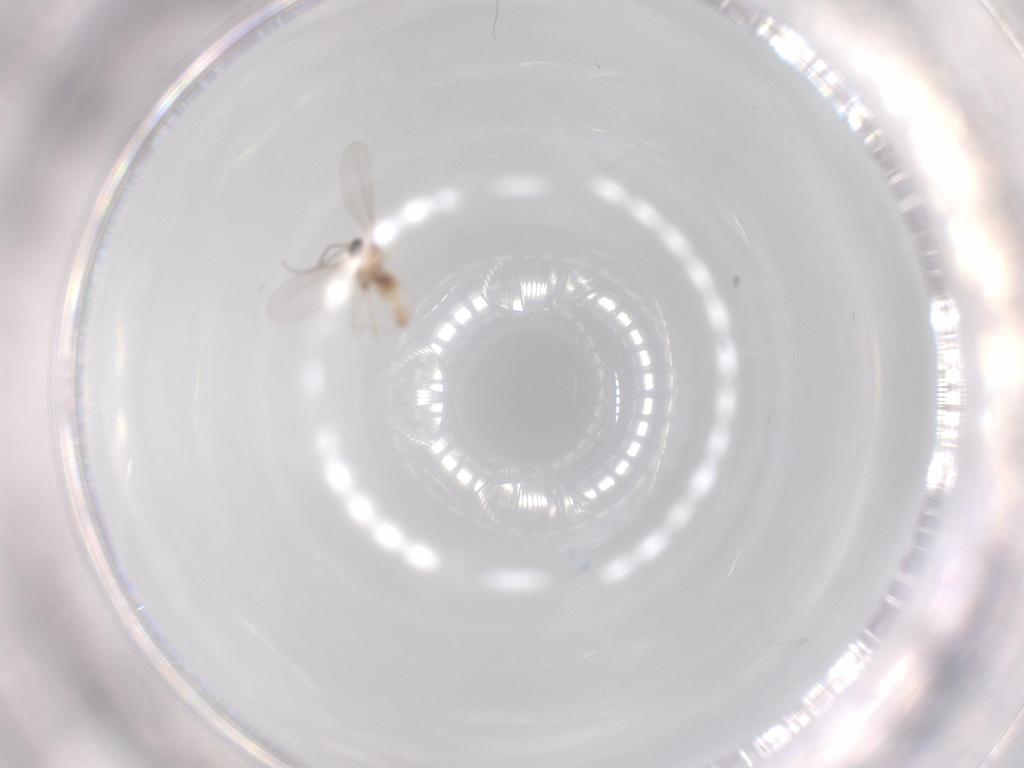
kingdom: Animalia
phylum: Arthropoda
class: Insecta
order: Diptera
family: Cecidomyiidae
